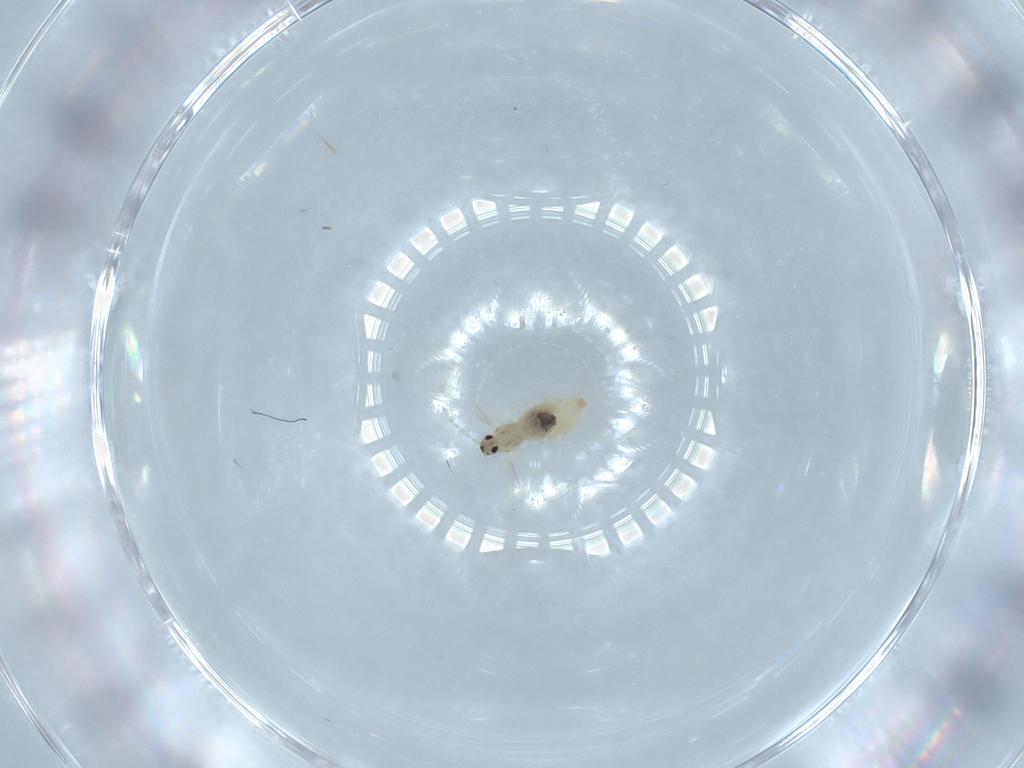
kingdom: Animalia
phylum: Arthropoda
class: Insecta
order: Diptera
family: Cecidomyiidae
